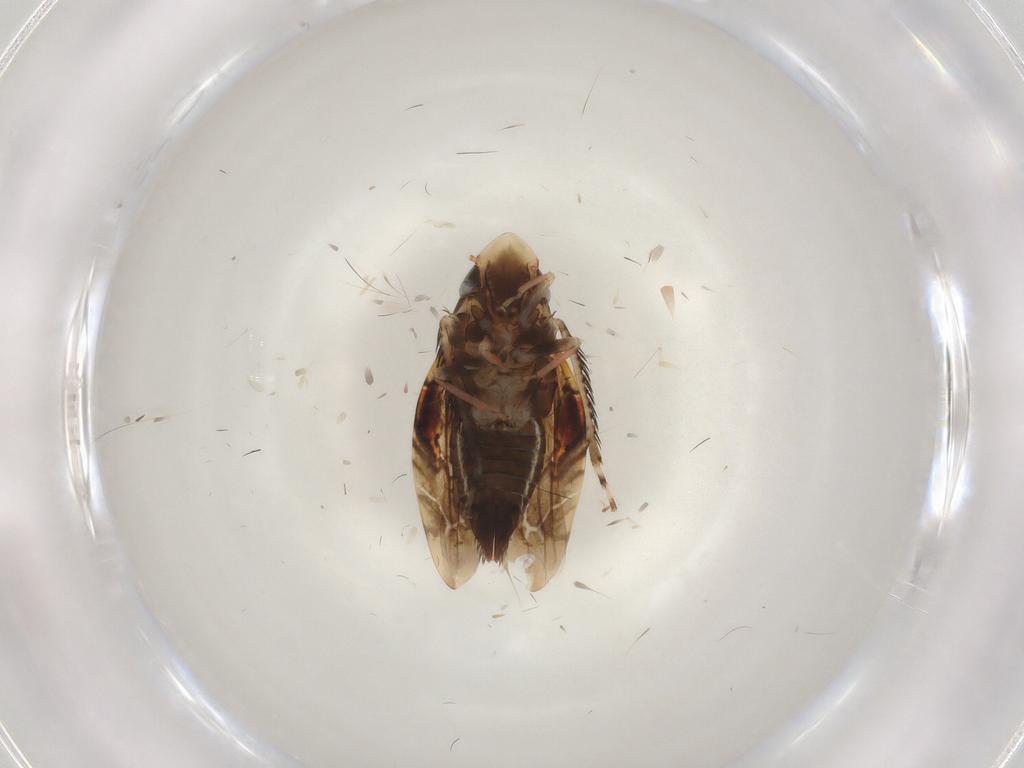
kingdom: Animalia
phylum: Arthropoda
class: Insecta
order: Hemiptera
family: Cicadellidae
